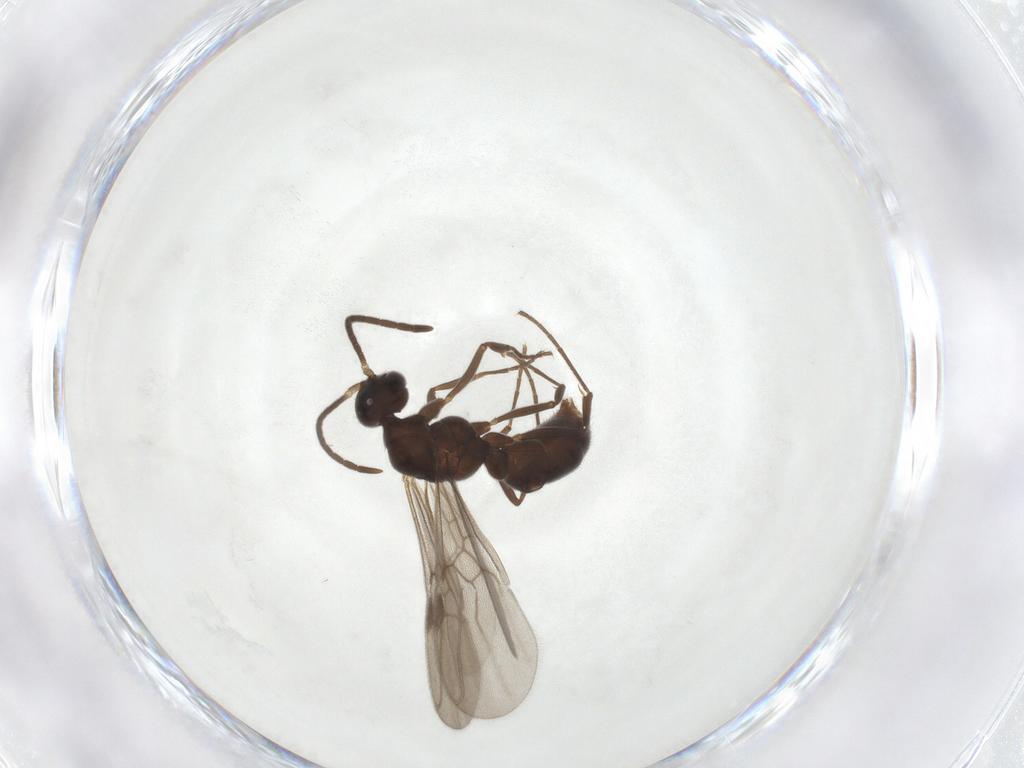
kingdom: Animalia
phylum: Arthropoda
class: Insecta
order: Hymenoptera
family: Formicidae
